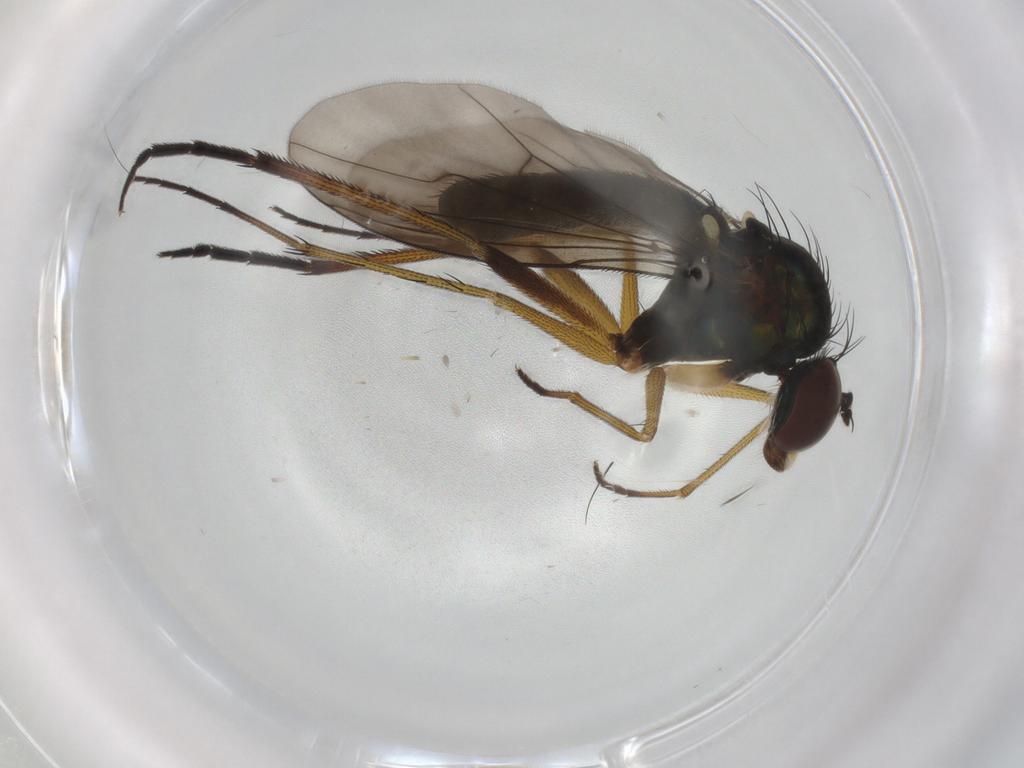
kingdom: Animalia
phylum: Arthropoda
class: Insecta
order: Diptera
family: Dolichopodidae
